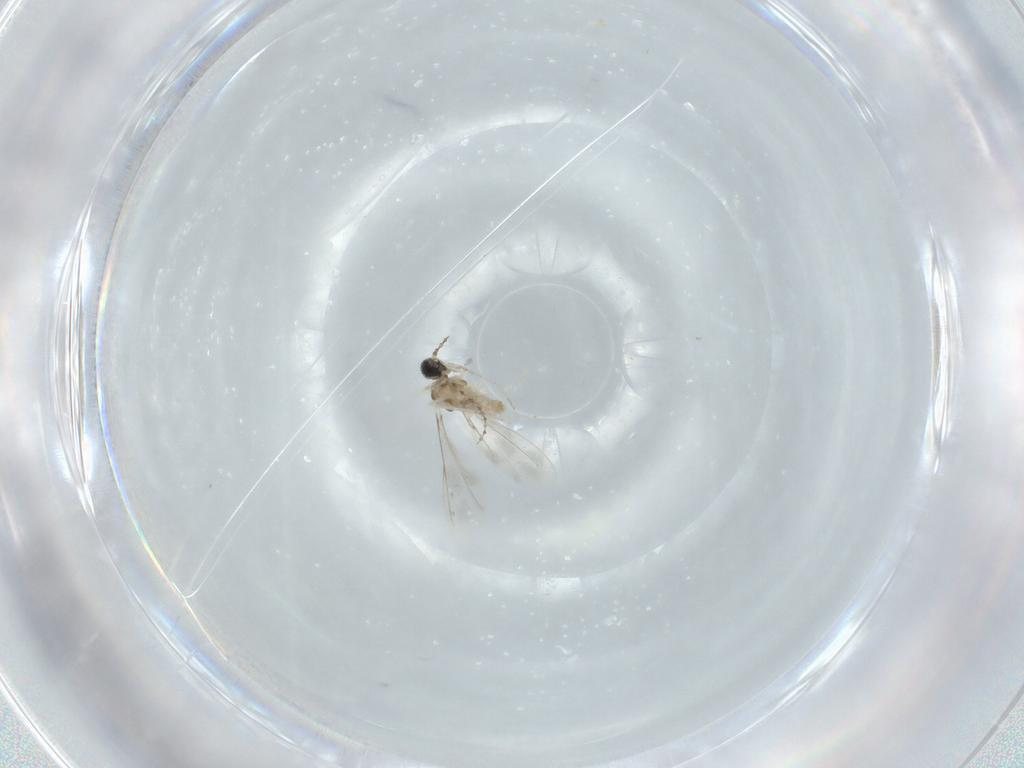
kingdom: Animalia
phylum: Arthropoda
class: Insecta
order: Diptera
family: Cecidomyiidae
